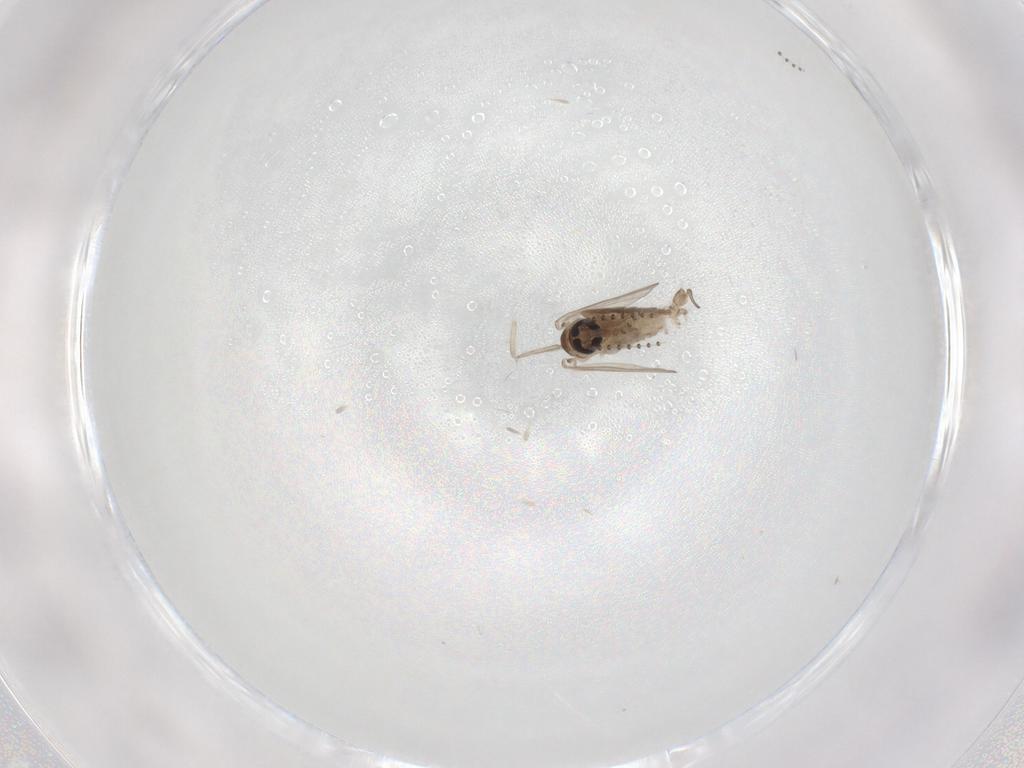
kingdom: Animalia
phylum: Arthropoda
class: Insecta
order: Diptera
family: Psychodidae
